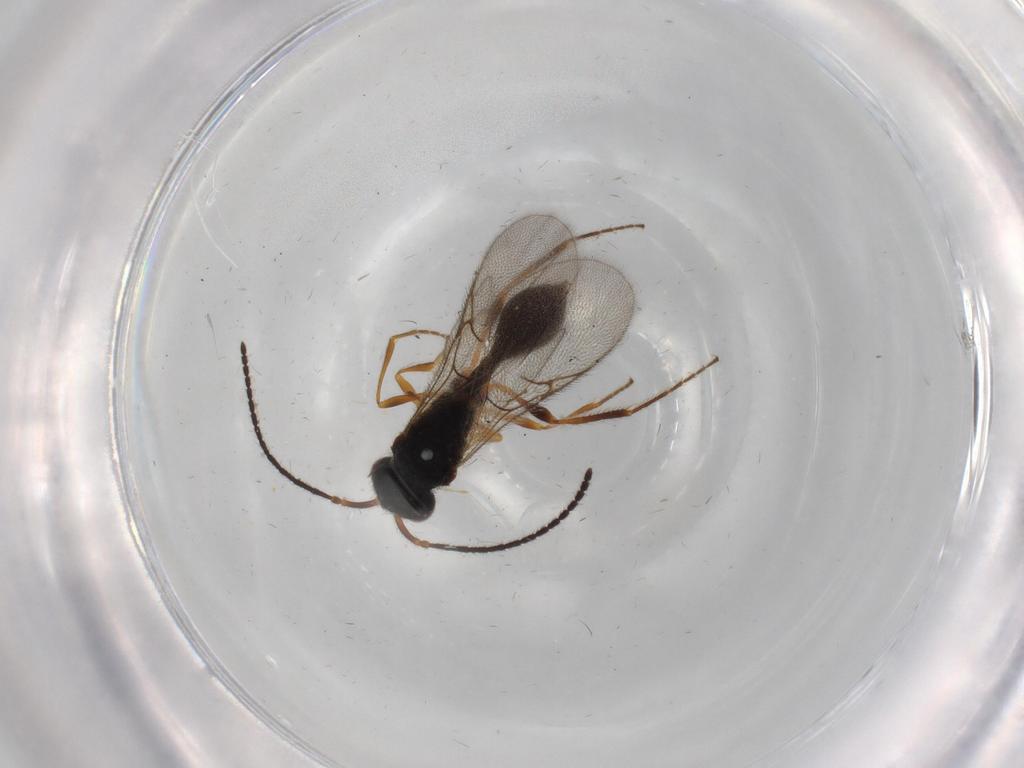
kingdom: Animalia
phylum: Arthropoda
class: Insecta
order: Hymenoptera
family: Diapriidae
